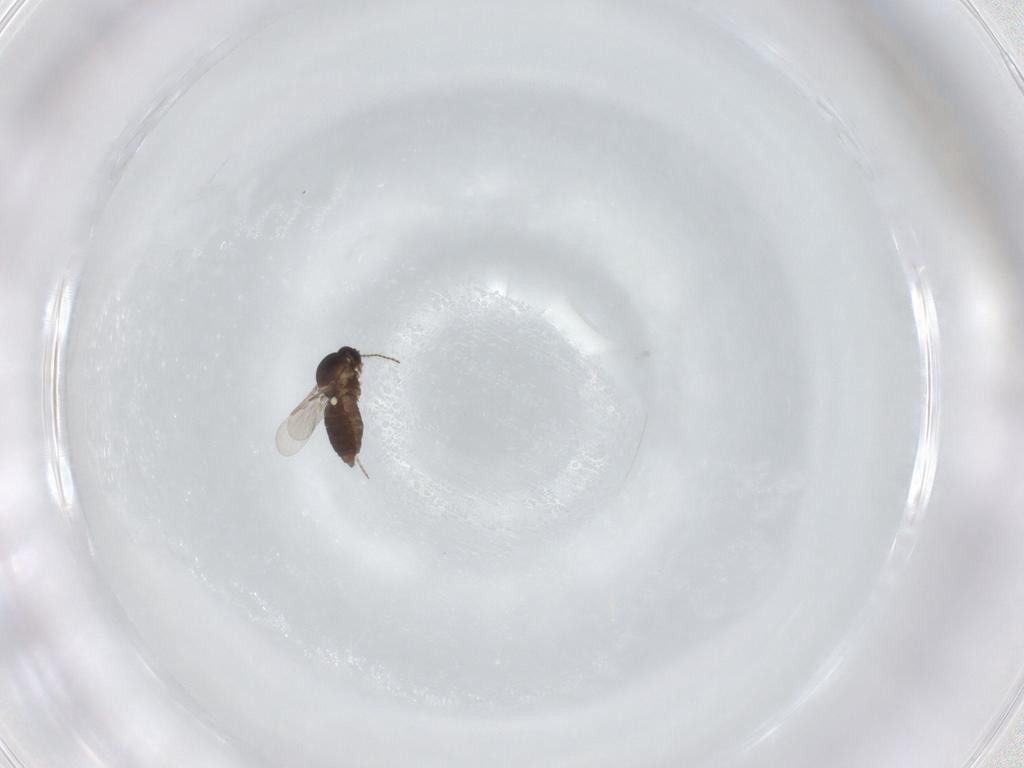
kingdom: Animalia
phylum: Arthropoda
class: Insecta
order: Diptera
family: Ceratopogonidae
